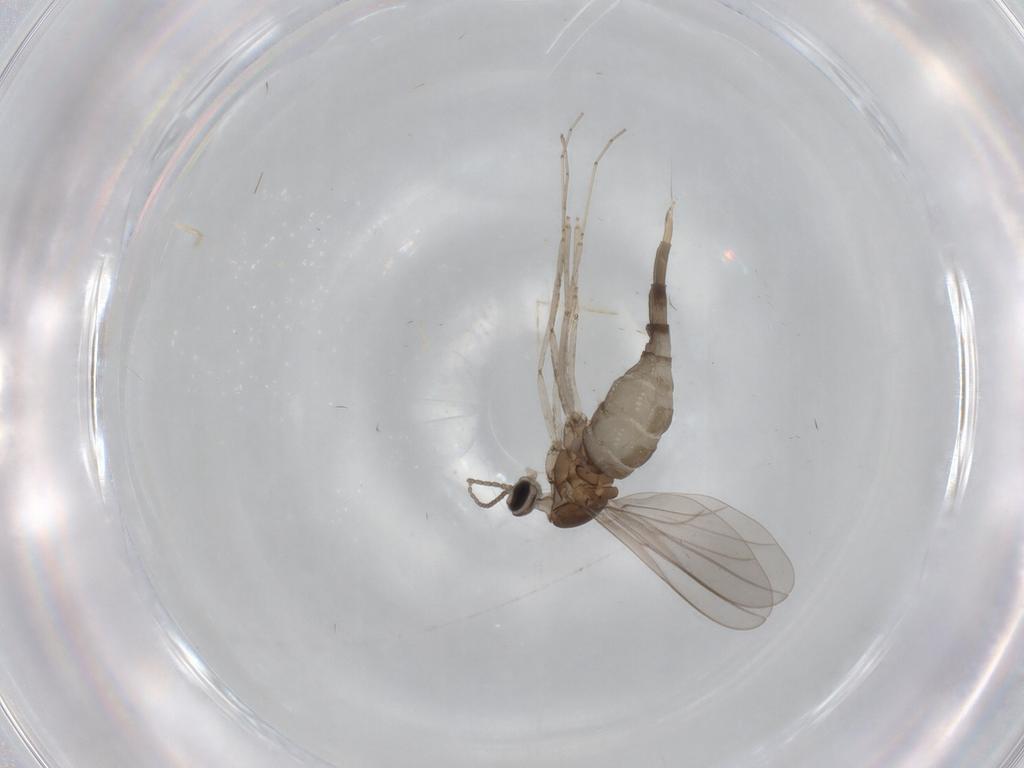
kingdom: Animalia
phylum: Arthropoda
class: Insecta
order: Diptera
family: Cecidomyiidae
